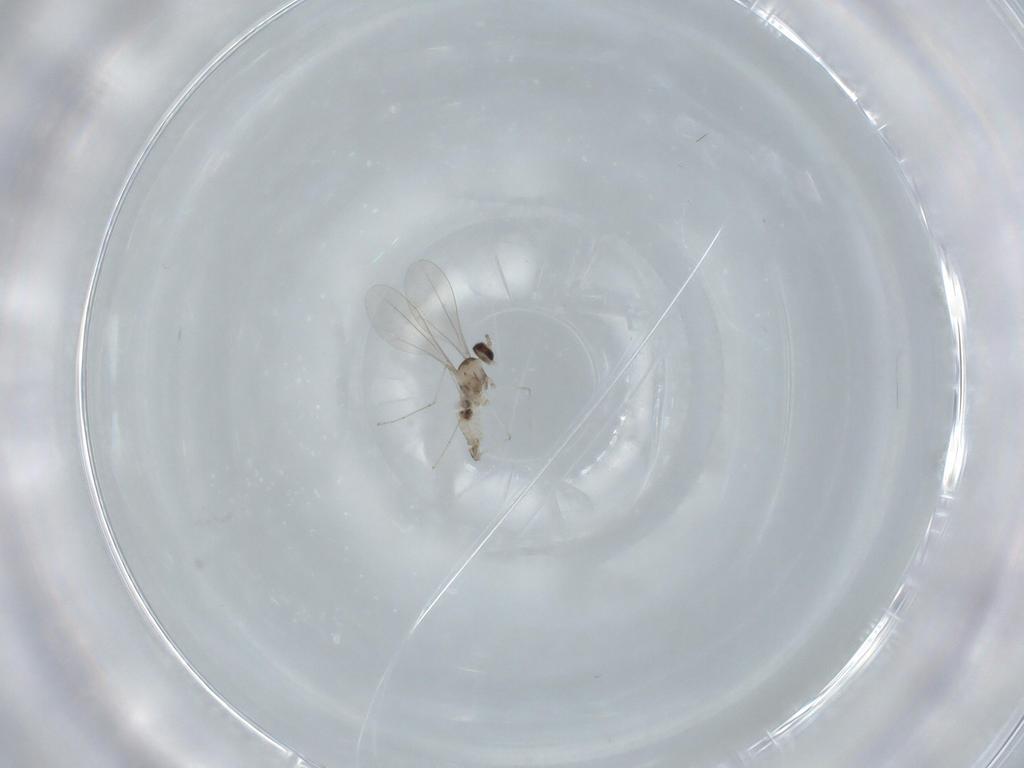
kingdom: Animalia
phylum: Arthropoda
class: Insecta
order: Diptera
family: Cecidomyiidae
